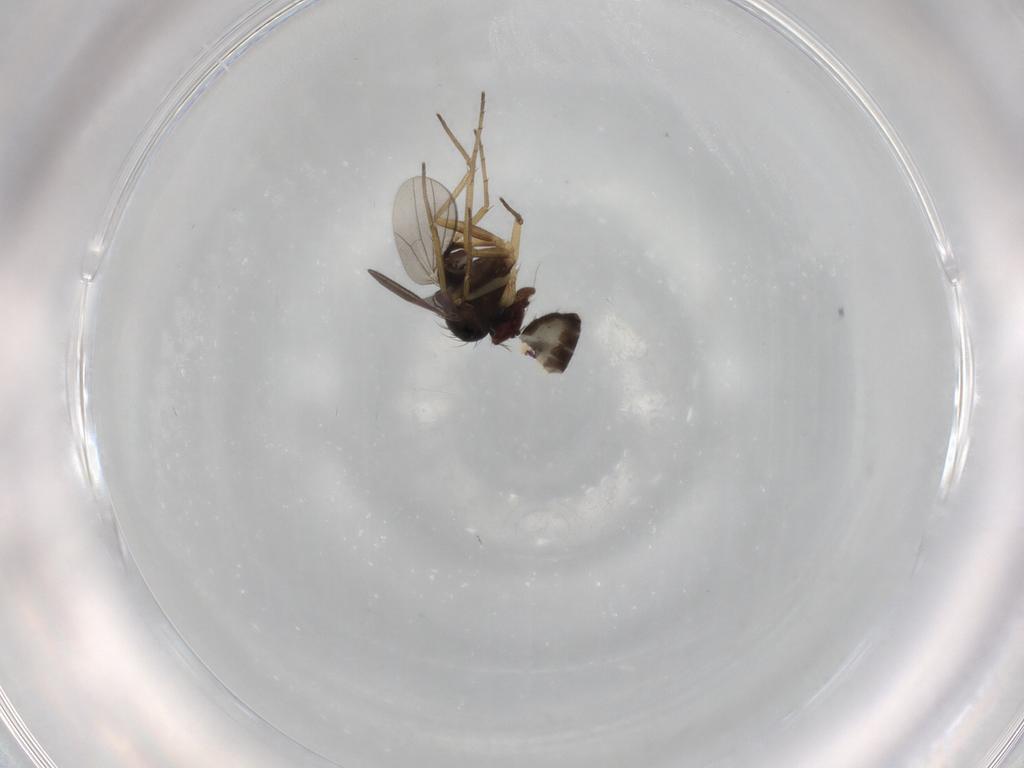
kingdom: Animalia
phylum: Arthropoda
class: Insecta
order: Diptera
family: Dolichopodidae
